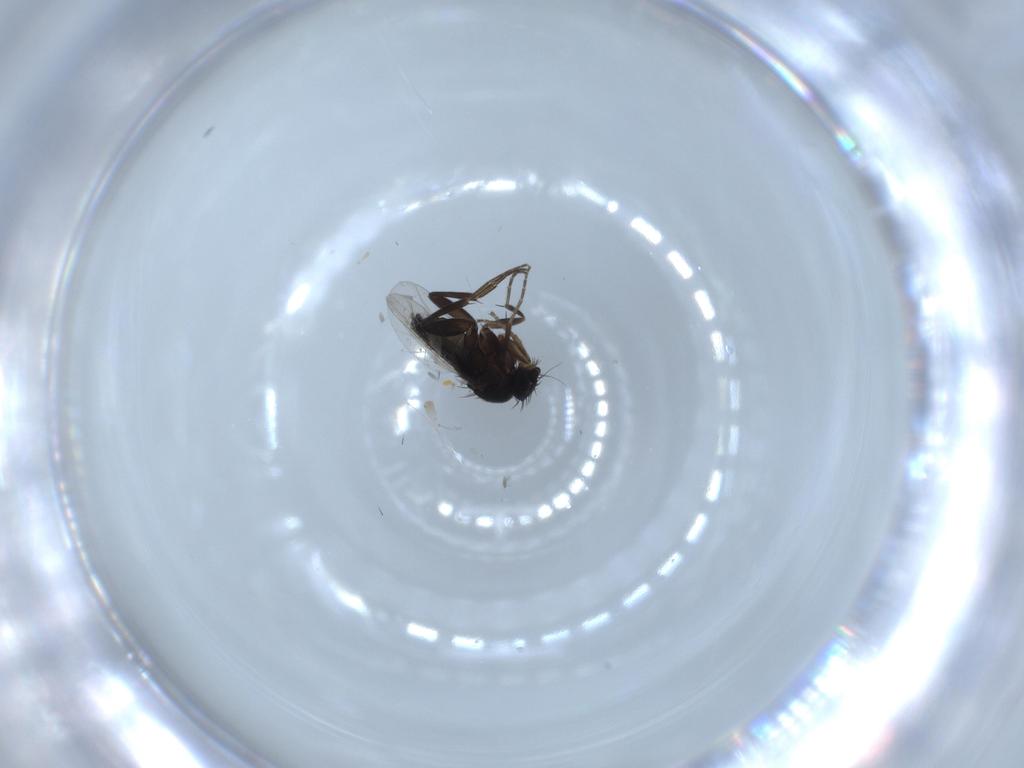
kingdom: Animalia
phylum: Arthropoda
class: Insecta
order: Diptera
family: Phoridae
